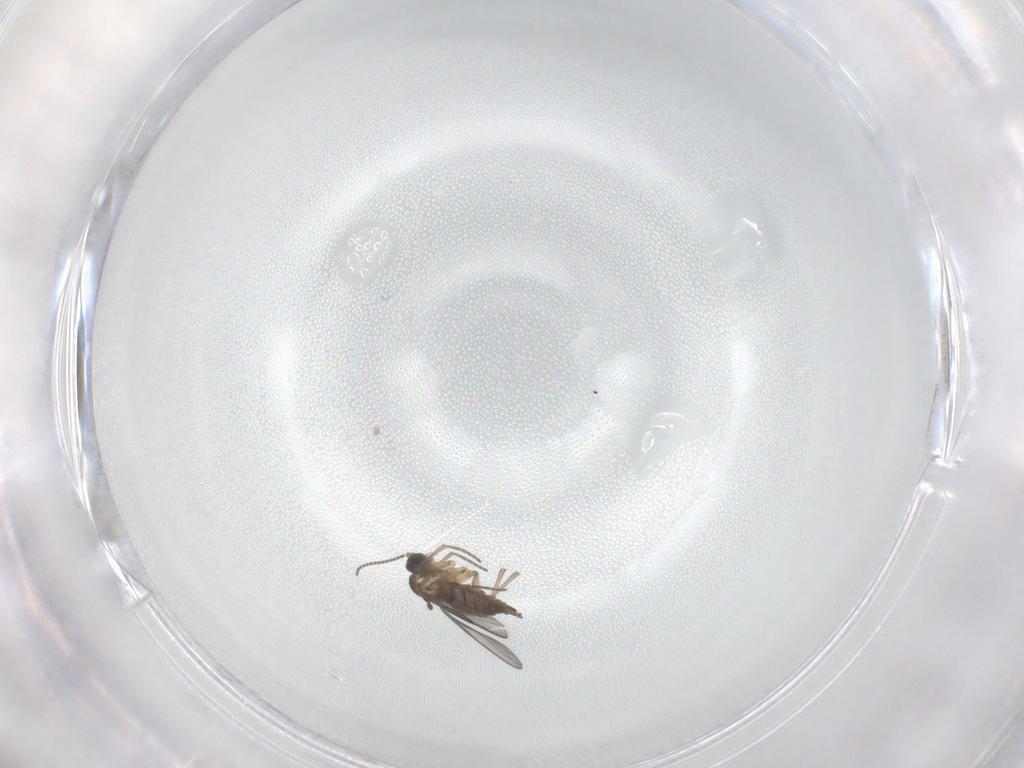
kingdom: Animalia
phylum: Arthropoda
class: Insecta
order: Diptera
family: Sciaridae
